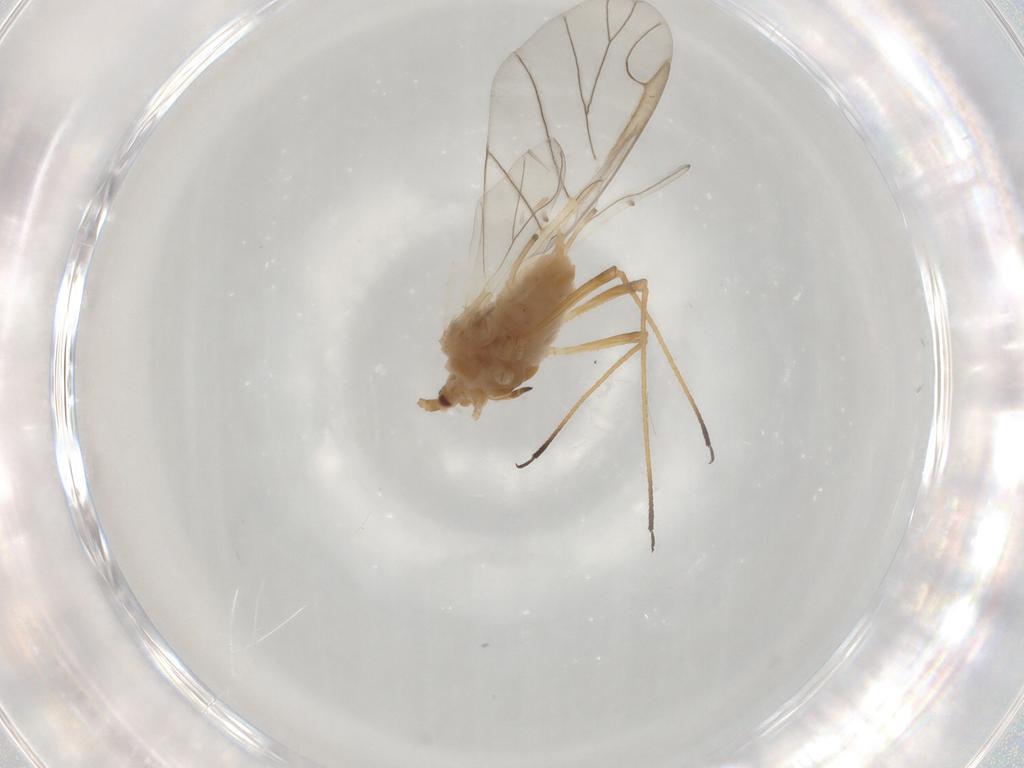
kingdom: Animalia
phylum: Arthropoda
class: Insecta
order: Hemiptera
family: Aphididae
